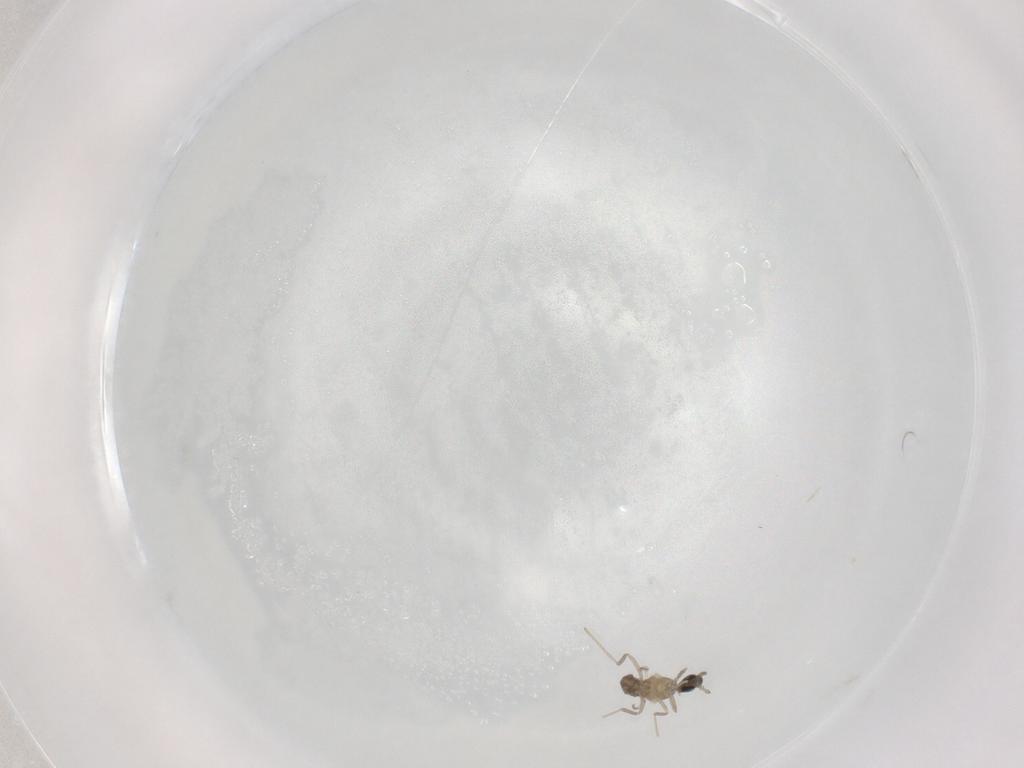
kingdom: Animalia
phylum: Arthropoda
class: Insecta
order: Diptera
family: Cecidomyiidae
